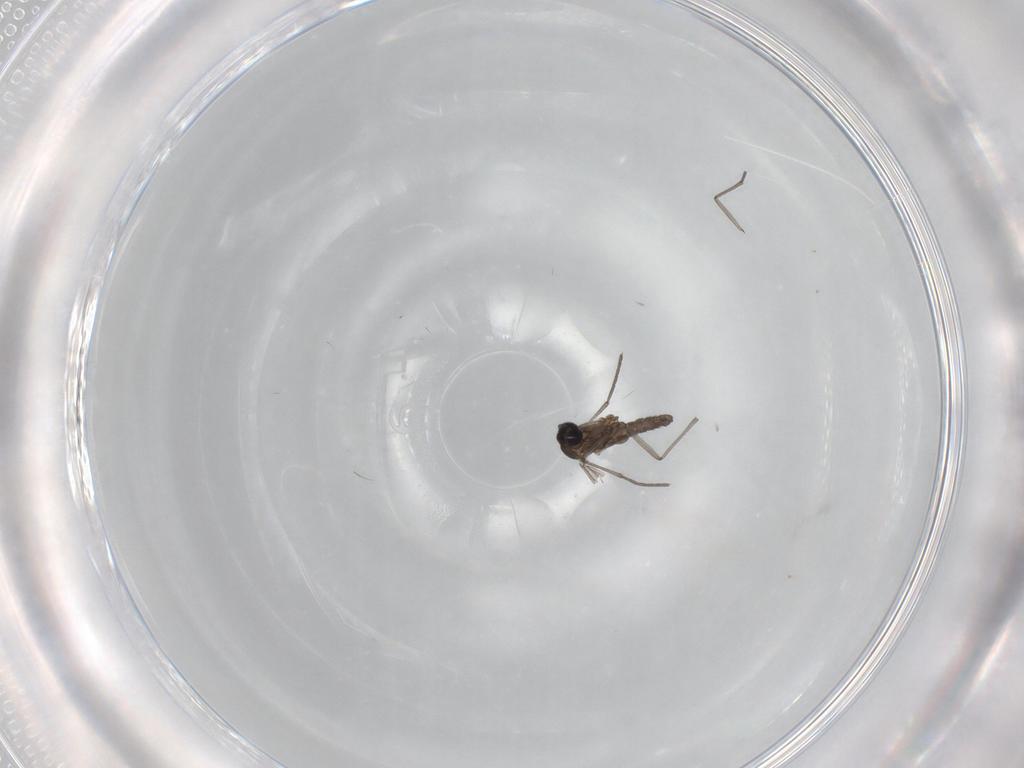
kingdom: Animalia
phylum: Arthropoda
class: Insecta
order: Diptera
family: Sciaridae
